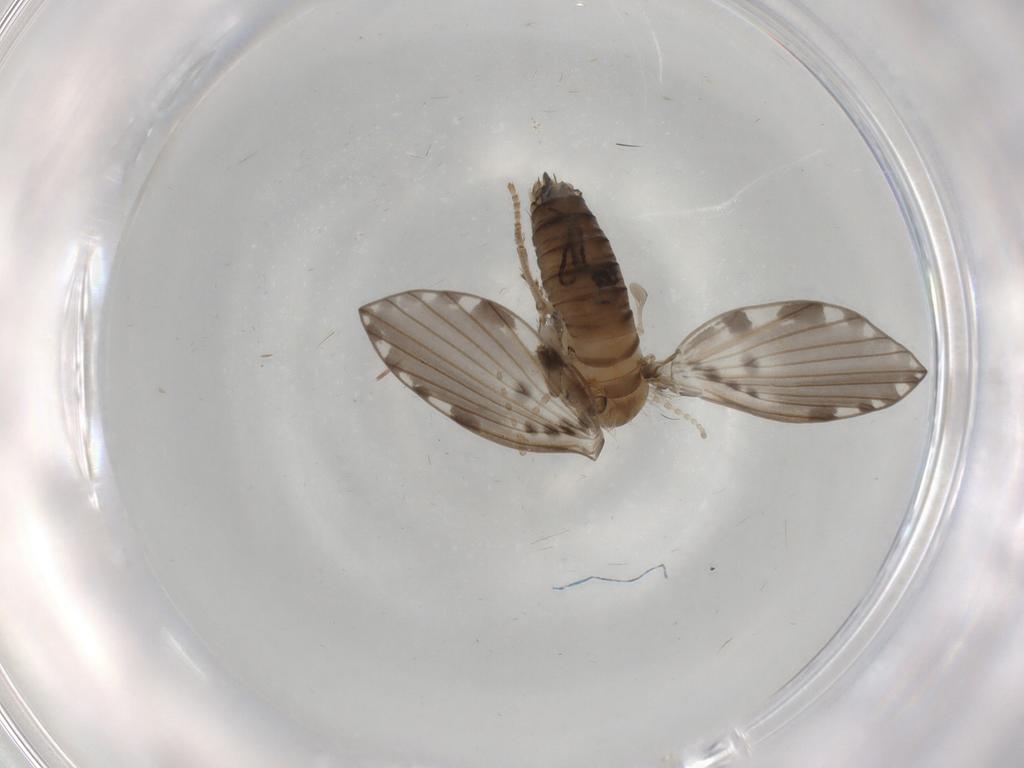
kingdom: Animalia
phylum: Arthropoda
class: Insecta
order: Diptera
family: Psychodidae
